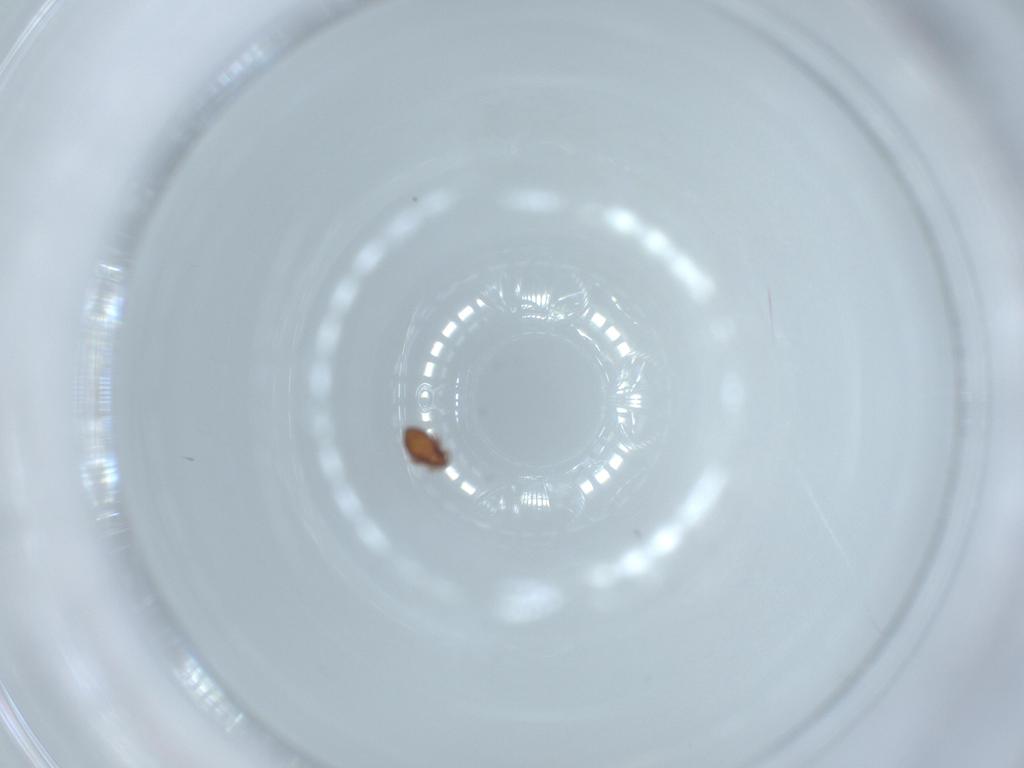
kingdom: Animalia
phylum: Arthropoda
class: Arachnida
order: Sarcoptiformes
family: Oribatulidae
